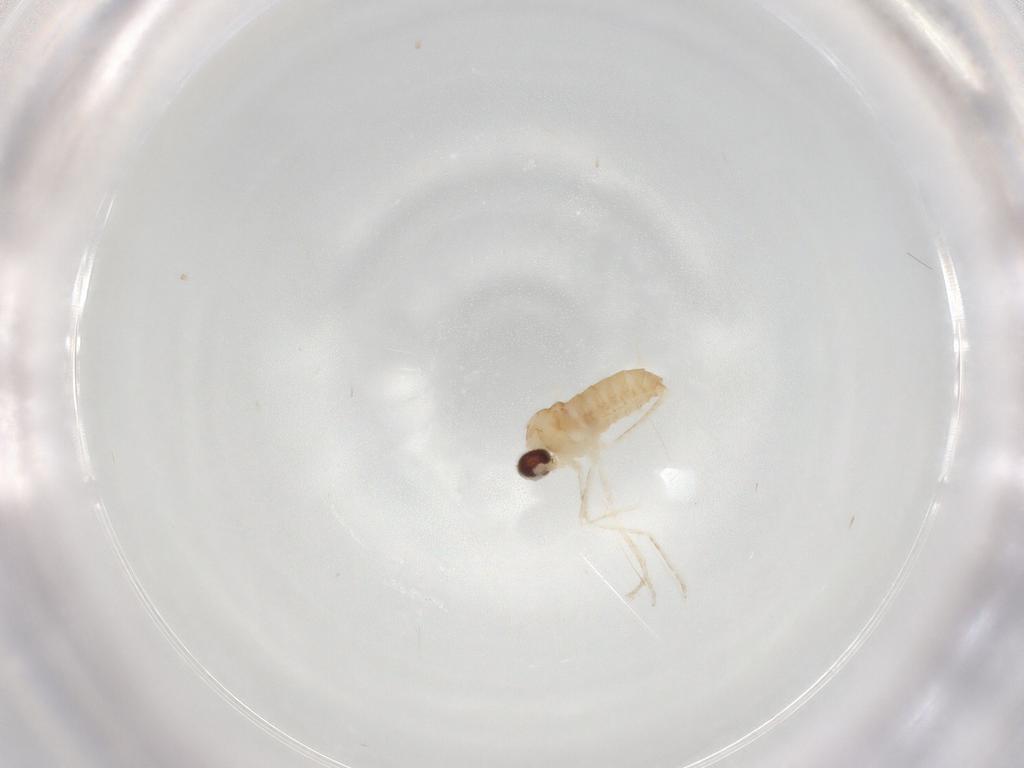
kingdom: Animalia
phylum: Arthropoda
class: Insecta
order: Diptera
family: Cecidomyiidae
